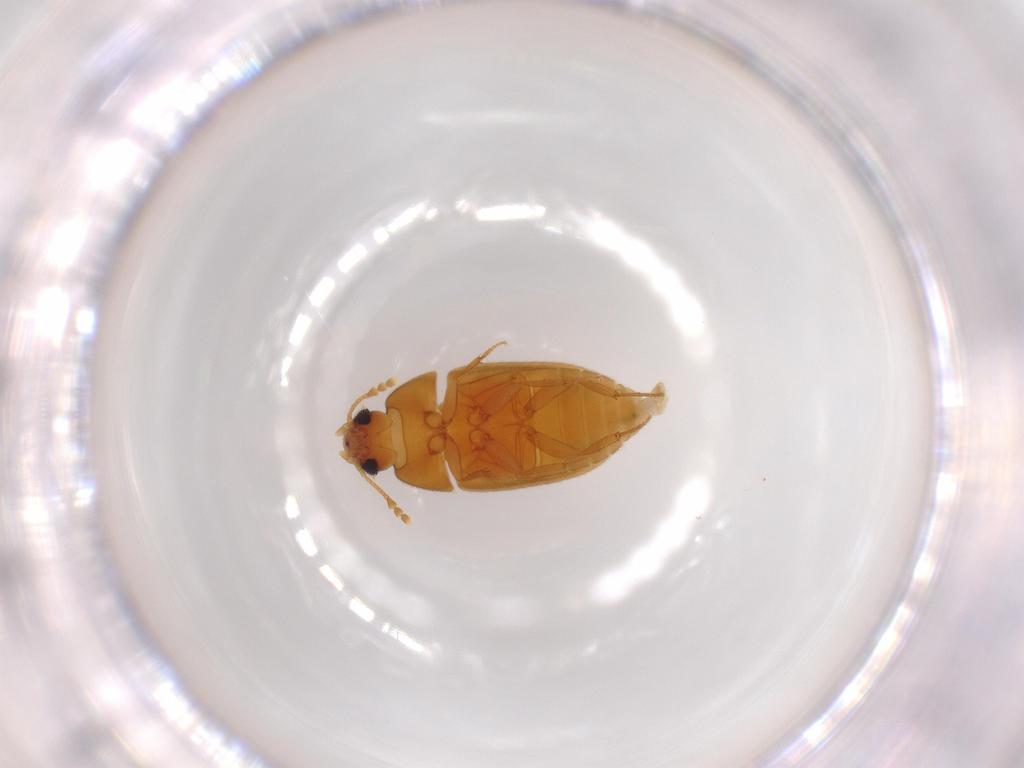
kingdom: Animalia
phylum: Arthropoda
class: Insecta
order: Coleoptera
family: Mycetophagidae
